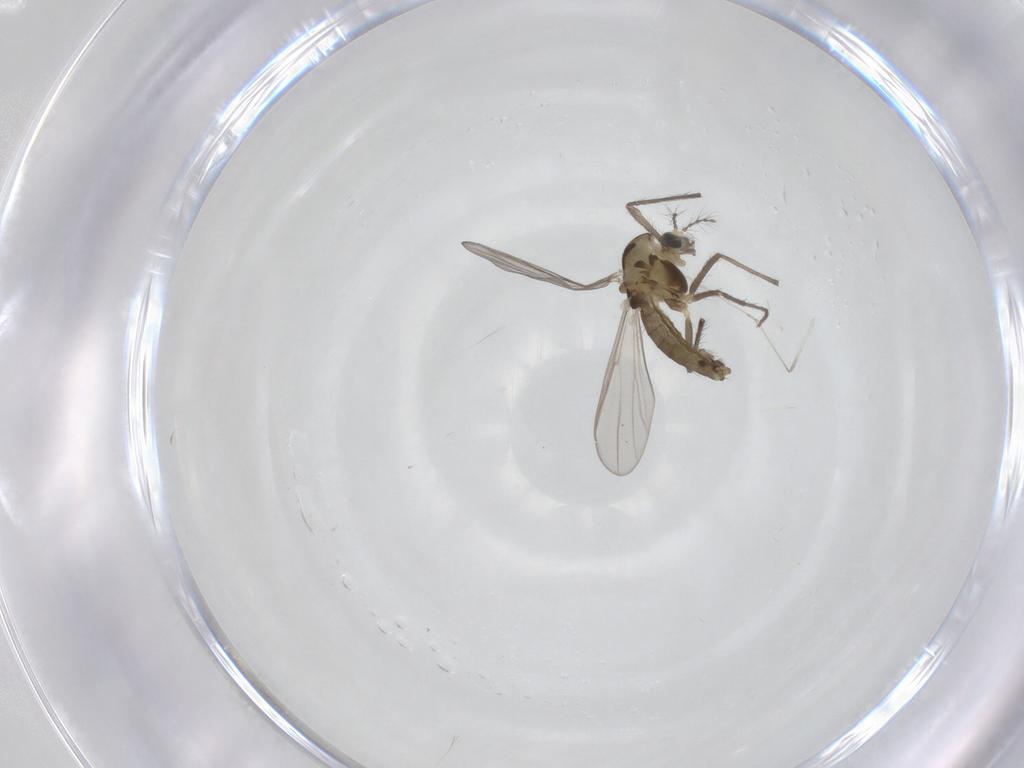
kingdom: Animalia
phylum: Arthropoda
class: Insecta
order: Diptera
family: Chironomidae
